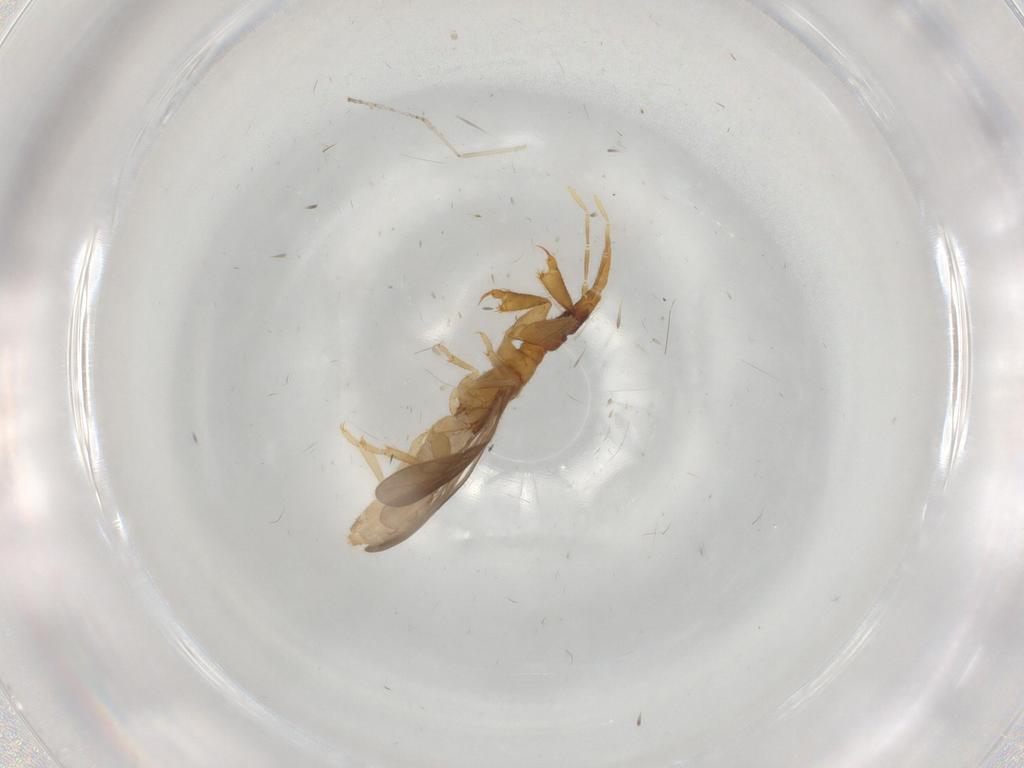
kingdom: Animalia
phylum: Arthropoda
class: Insecta
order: Hemiptera
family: Enicocephalidae
